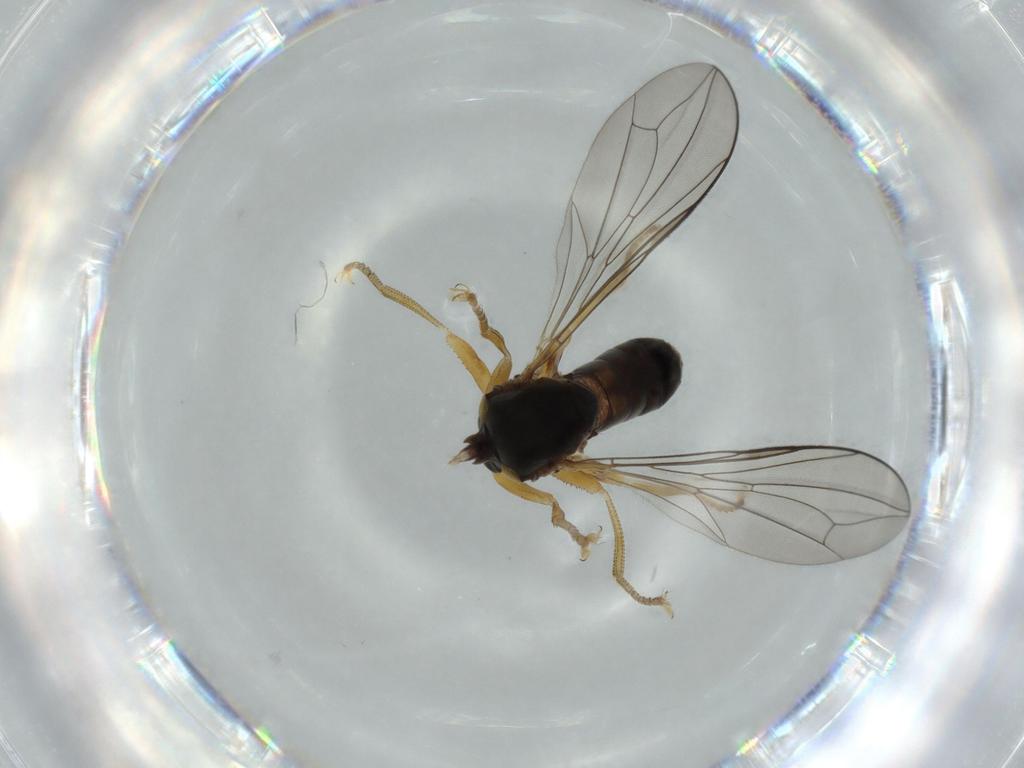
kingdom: Animalia
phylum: Arthropoda
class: Insecta
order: Diptera
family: Pipunculidae
